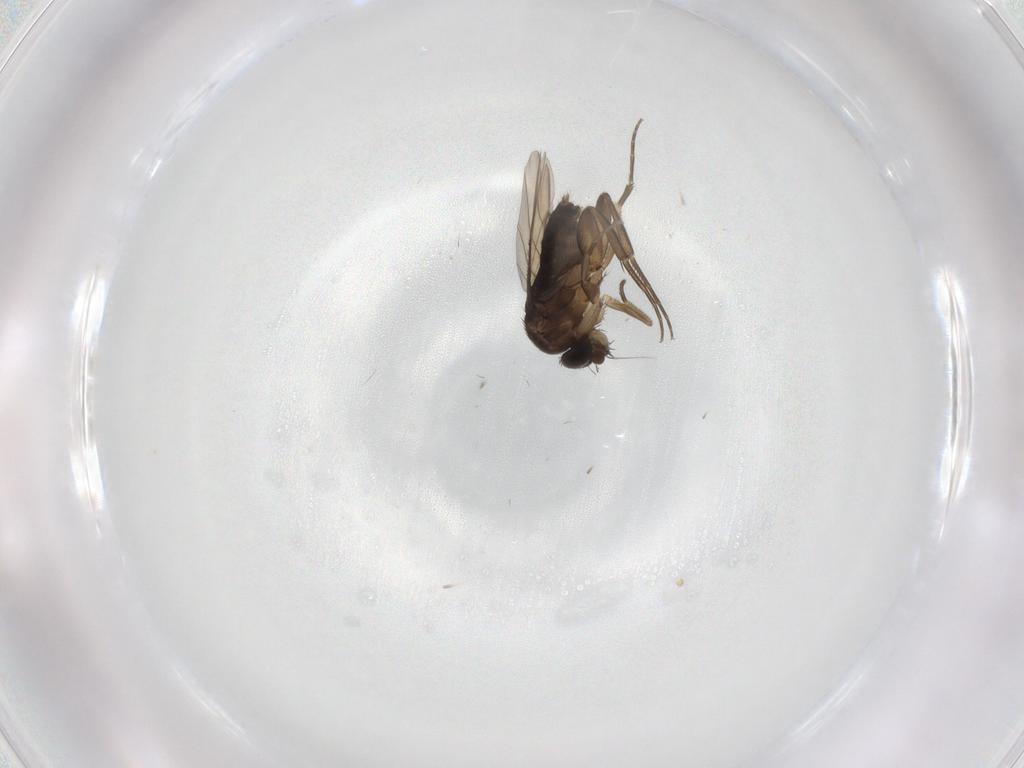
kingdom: Animalia
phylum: Arthropoda
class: Insecta
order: Diptera
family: Phoridae
